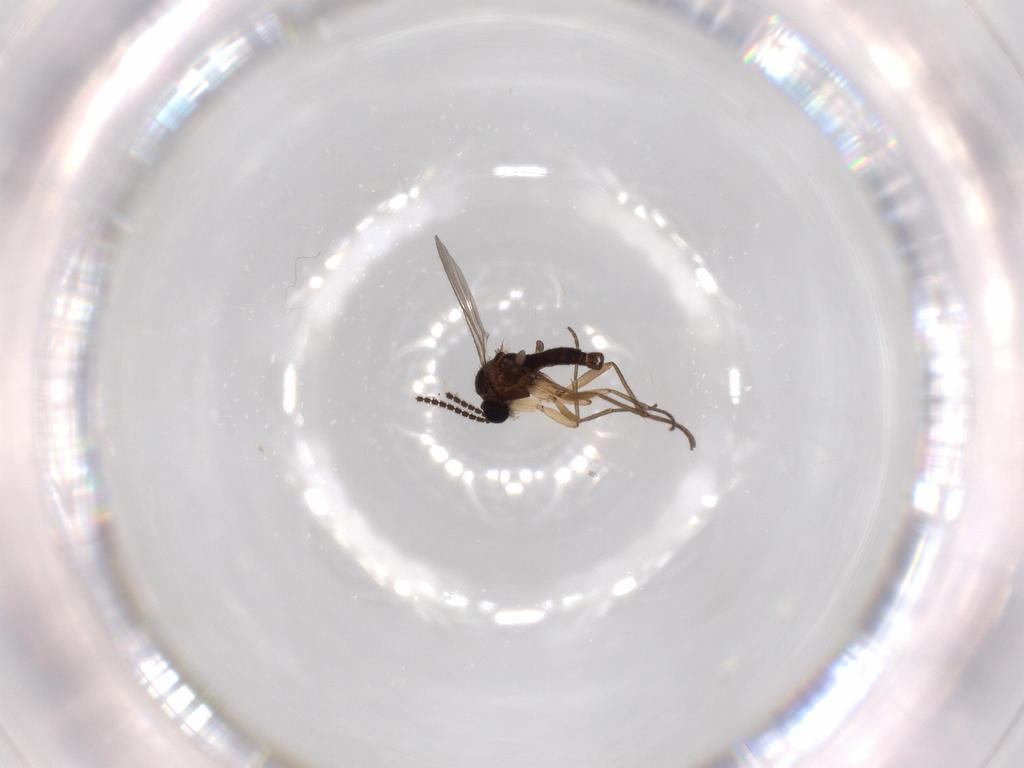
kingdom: Animalia
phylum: Arthropoda
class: Insecta
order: Diptera
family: Sciaridae
